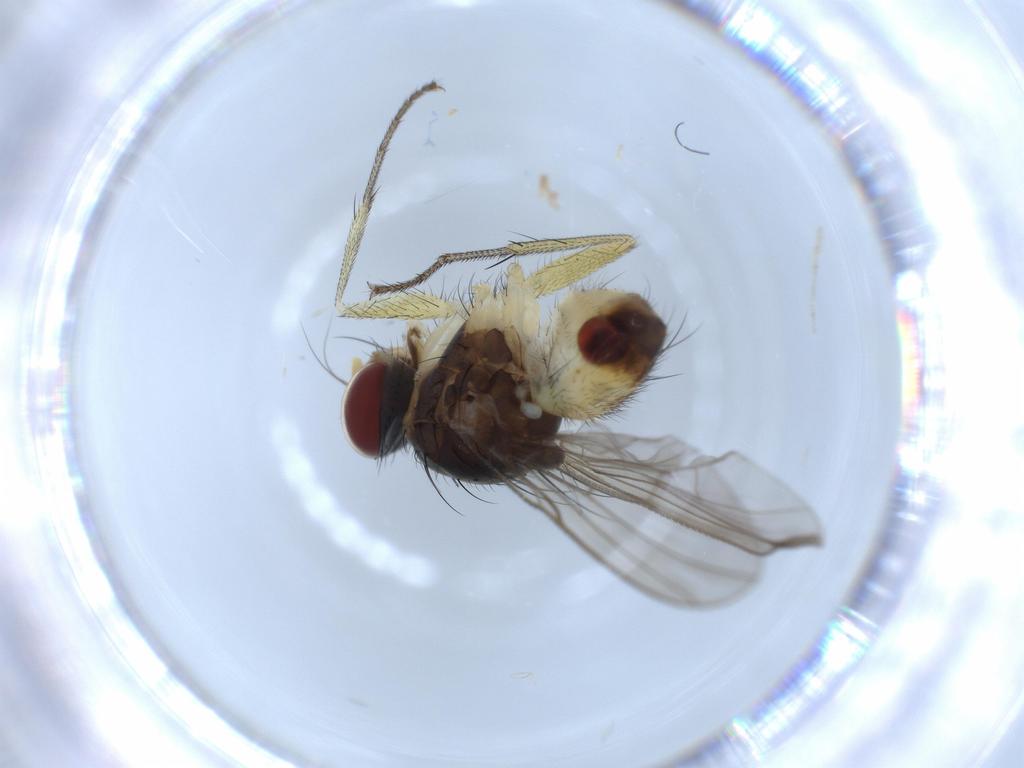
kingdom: Animalia
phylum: Arthropoda
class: Insecta
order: Diptera
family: Muscidae
